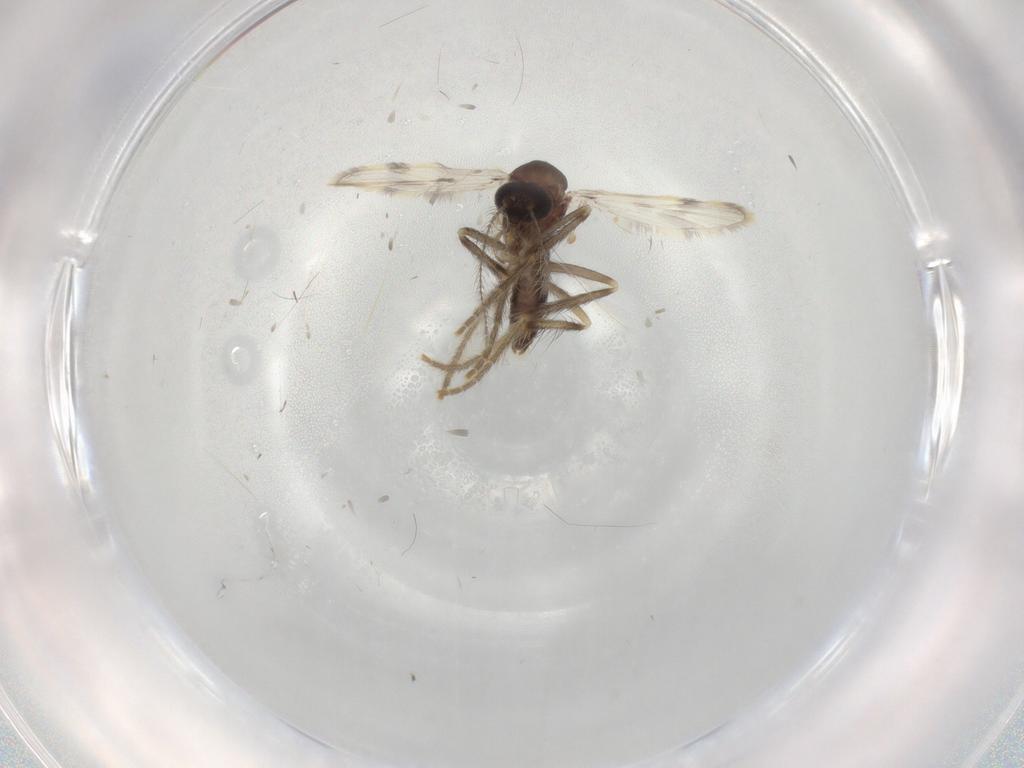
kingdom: Animalia
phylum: Arthropoda
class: Insecta
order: Diptera
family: Corethrellidae
